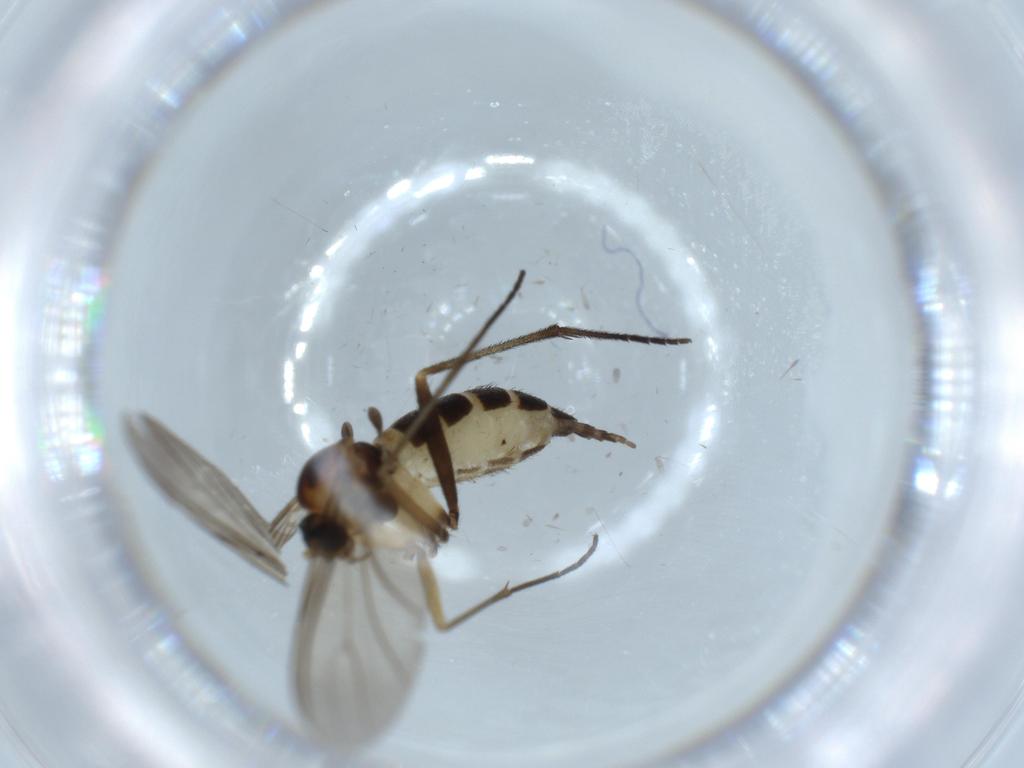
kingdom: Animalia
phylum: Arthropoda
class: Insecta
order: Diptera
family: Sciaridae
